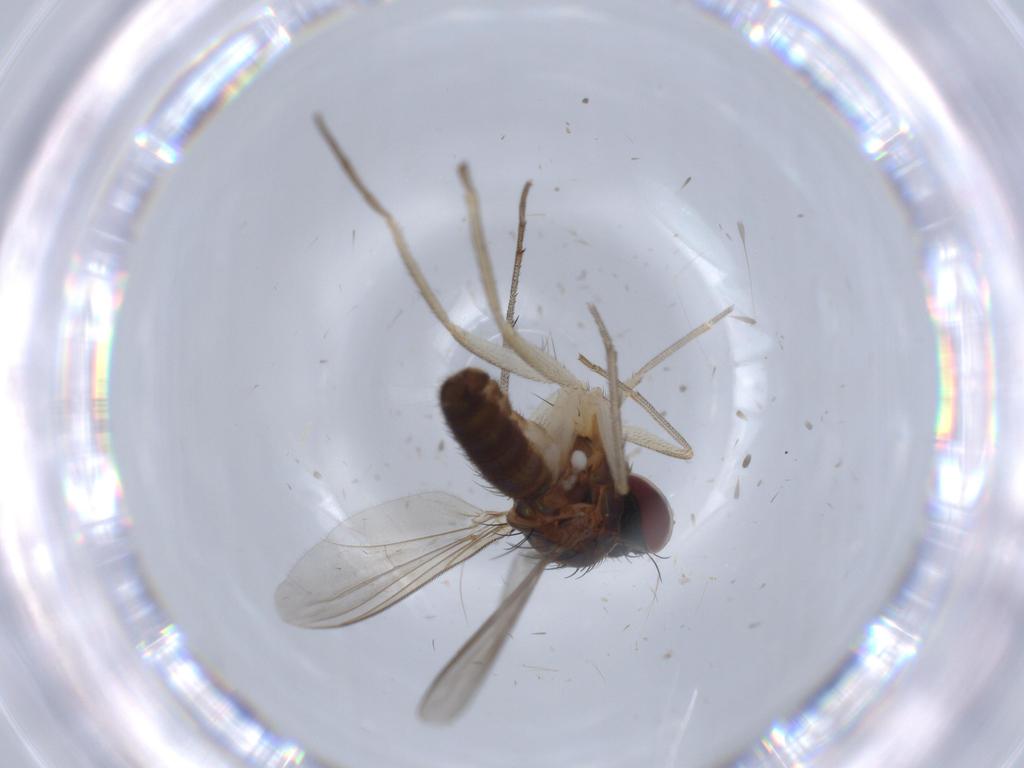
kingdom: Animalia
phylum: Arthropoda
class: Insecta
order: Diptera
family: Dolichopodidae
